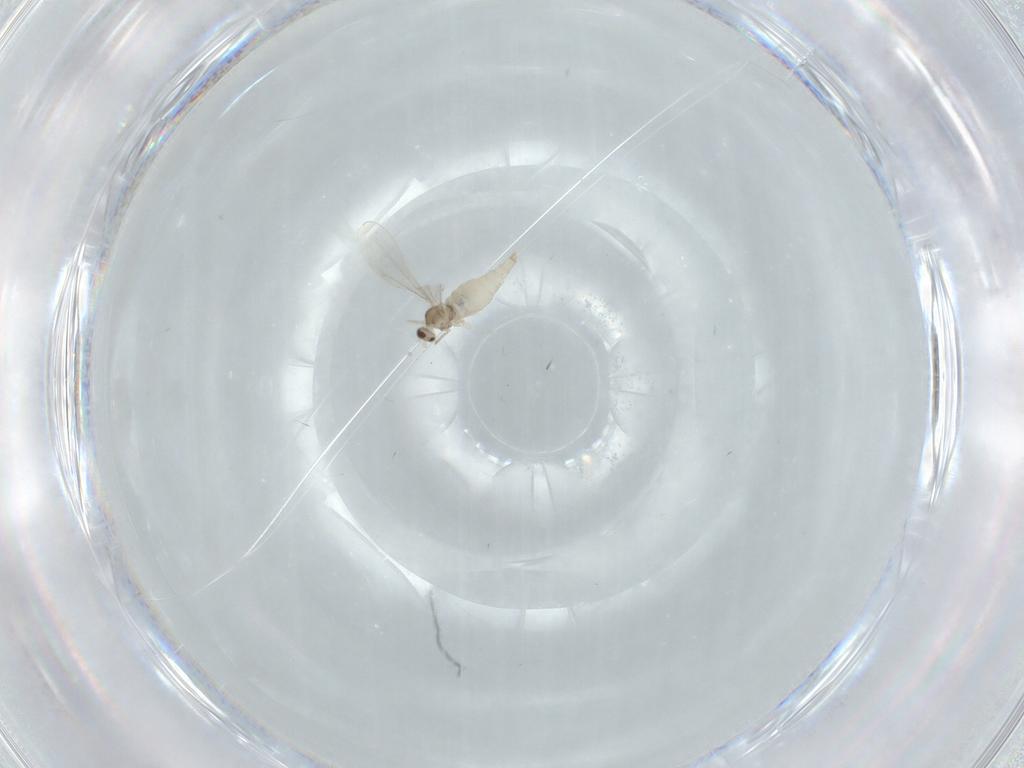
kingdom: Animalia
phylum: Arthropoda
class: Insecta
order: Diptera
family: Cecidomyiidae
